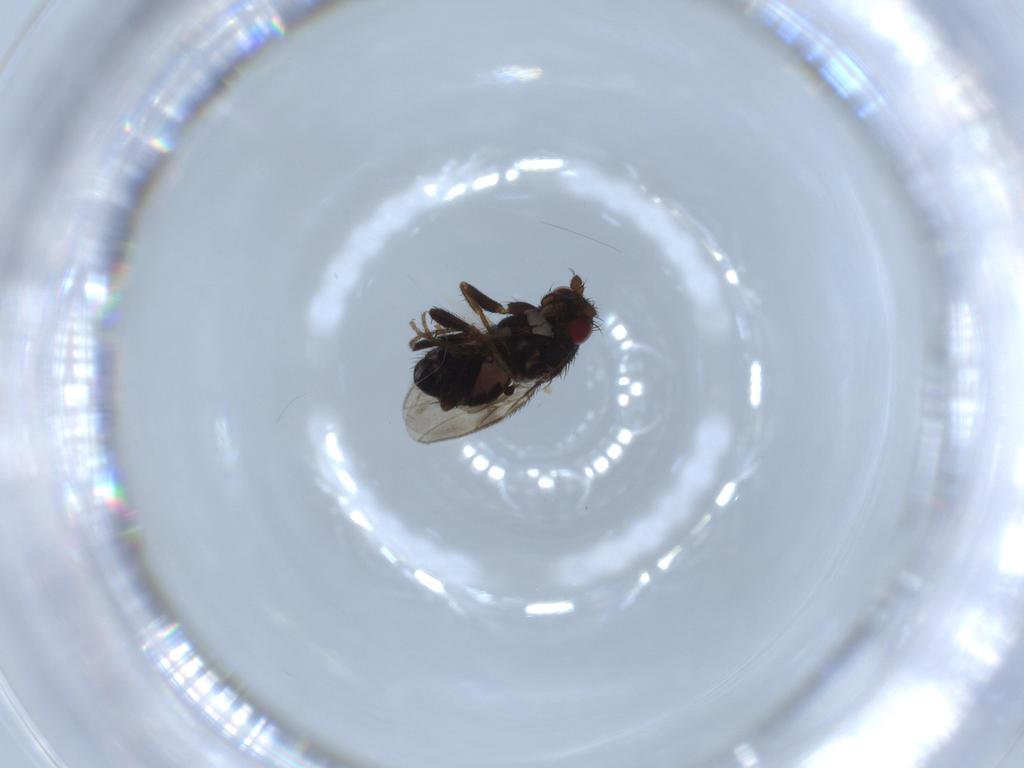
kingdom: Animalia
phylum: Arthropoda
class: Insecta
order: Diptera
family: Sphaeroceridae
